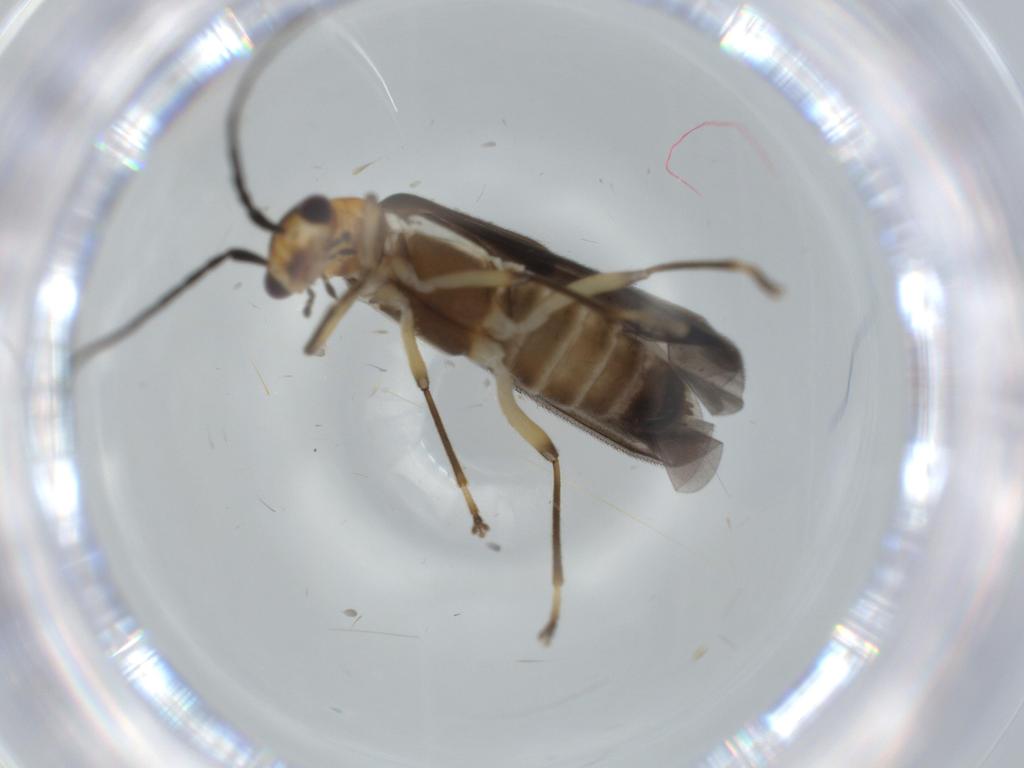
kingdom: Animalia
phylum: Arthropoda
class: Insecta
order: Coleoptera
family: Cantharidae
